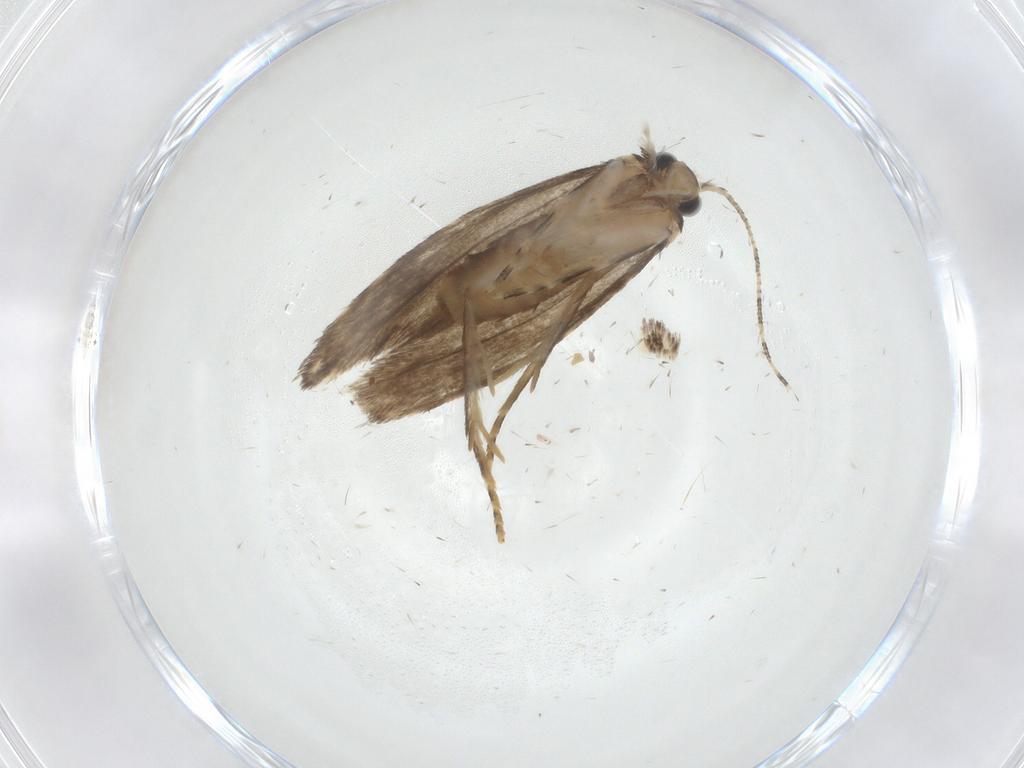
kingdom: Animalia
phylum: Arthropoda
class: Insecta
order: Lepidoptera
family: Tineidae
